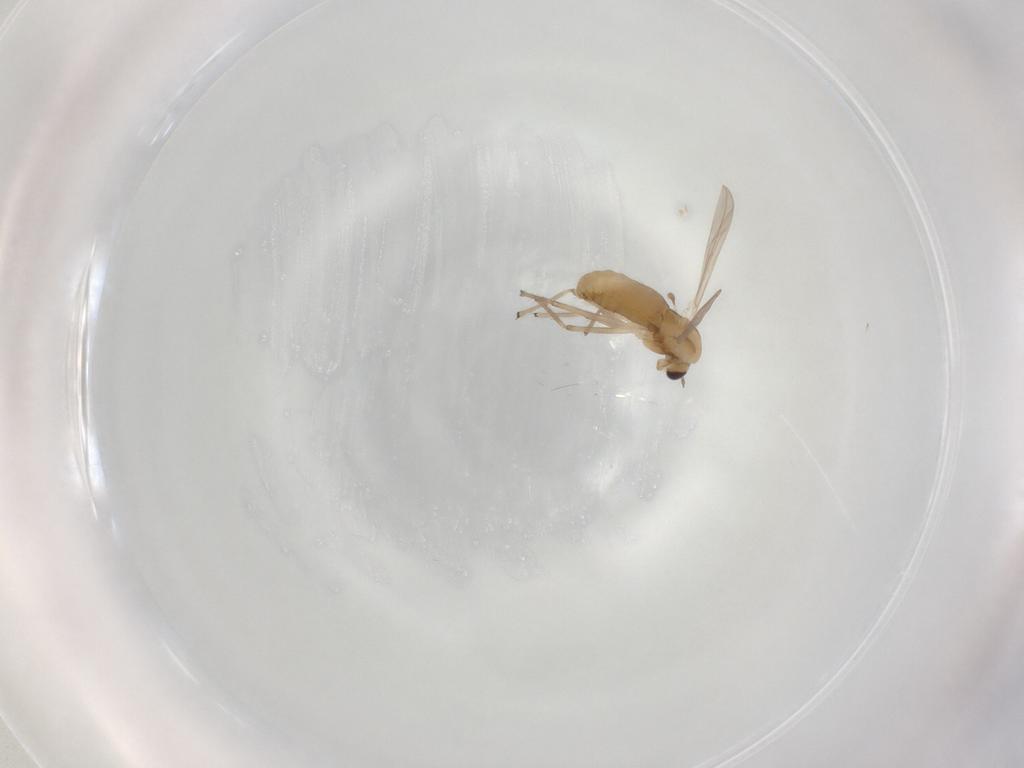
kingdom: Animalia
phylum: Arthropoda
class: Insecta
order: Diptera
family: Chironomidae
